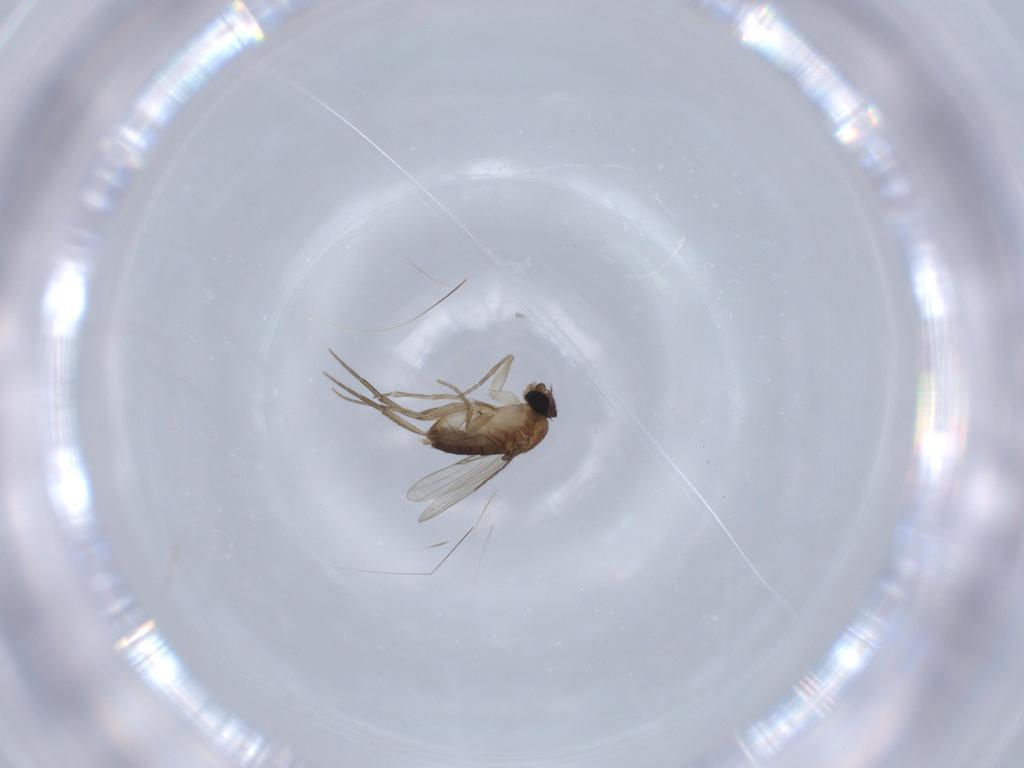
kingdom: Animalia
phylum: Arthropoda
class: Insecta
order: Diptera
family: Phoridae
